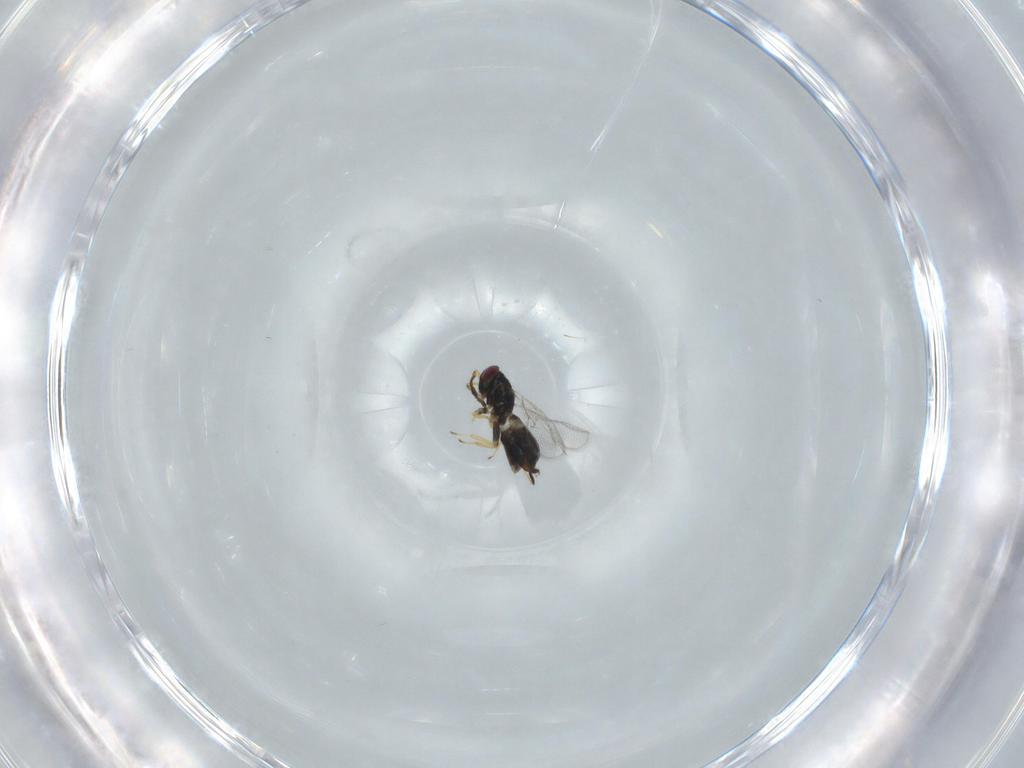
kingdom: Animalia
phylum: Arthropoda
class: Insecta
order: Hymenoptera
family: Eulophidae
